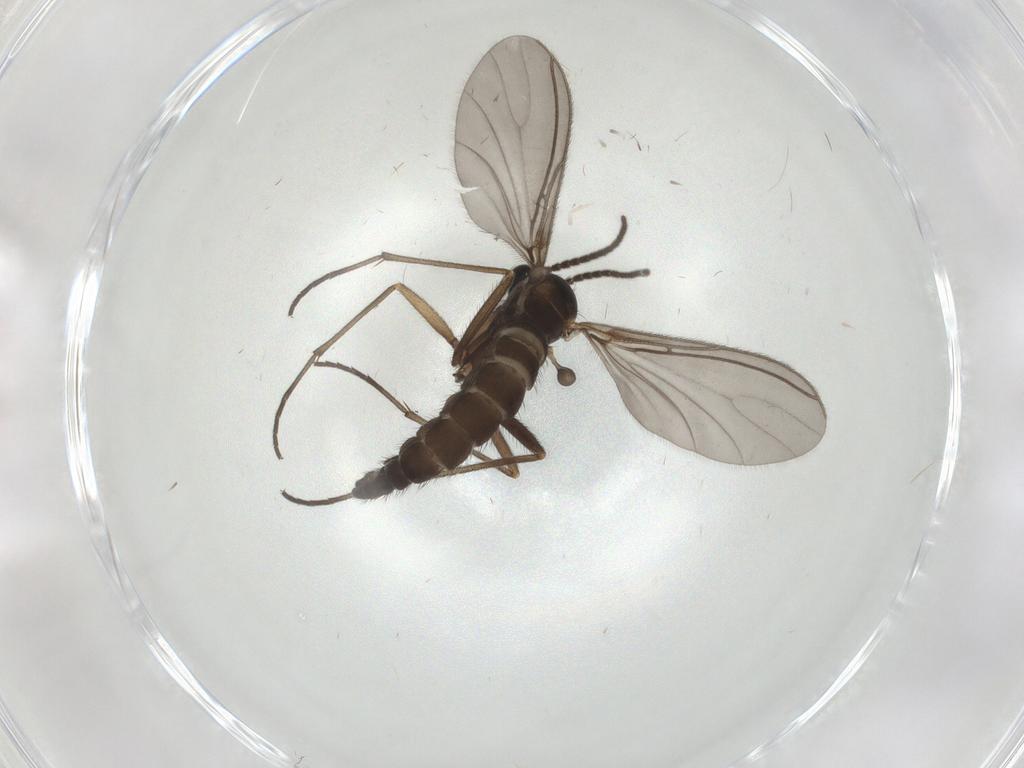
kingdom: Animalia
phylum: Arthropoda
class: Insecta
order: Diptera
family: Sciaridae
